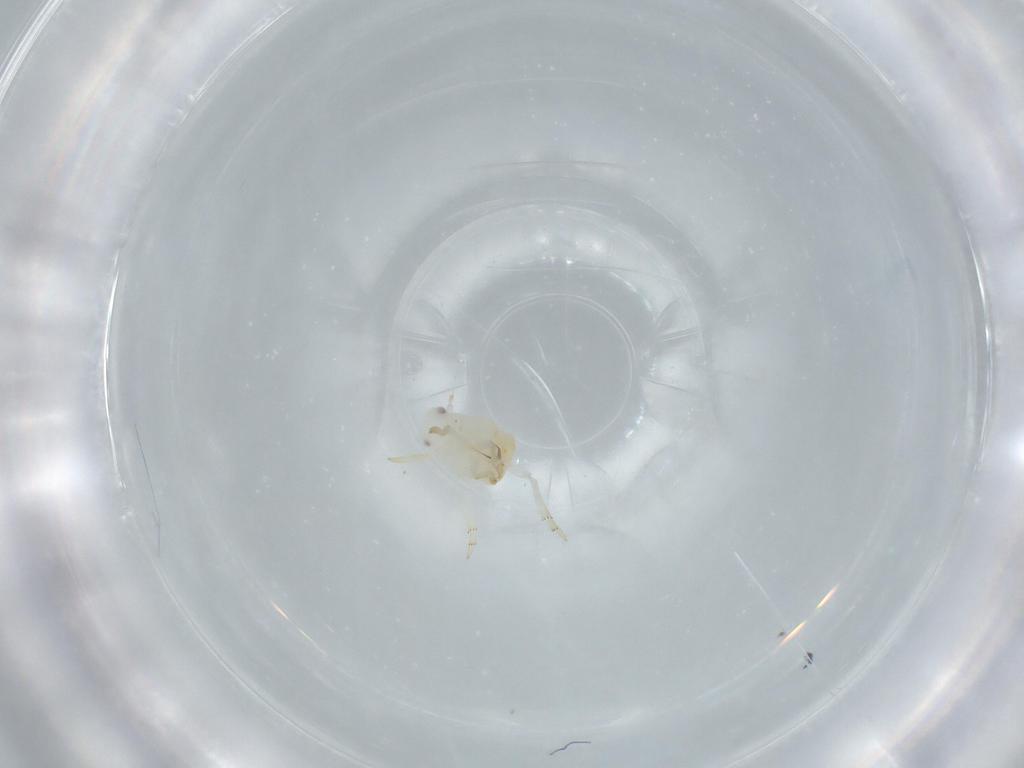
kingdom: Animalia
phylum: Arthropoda
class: Insecta
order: Hemiptera
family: Flatidae
